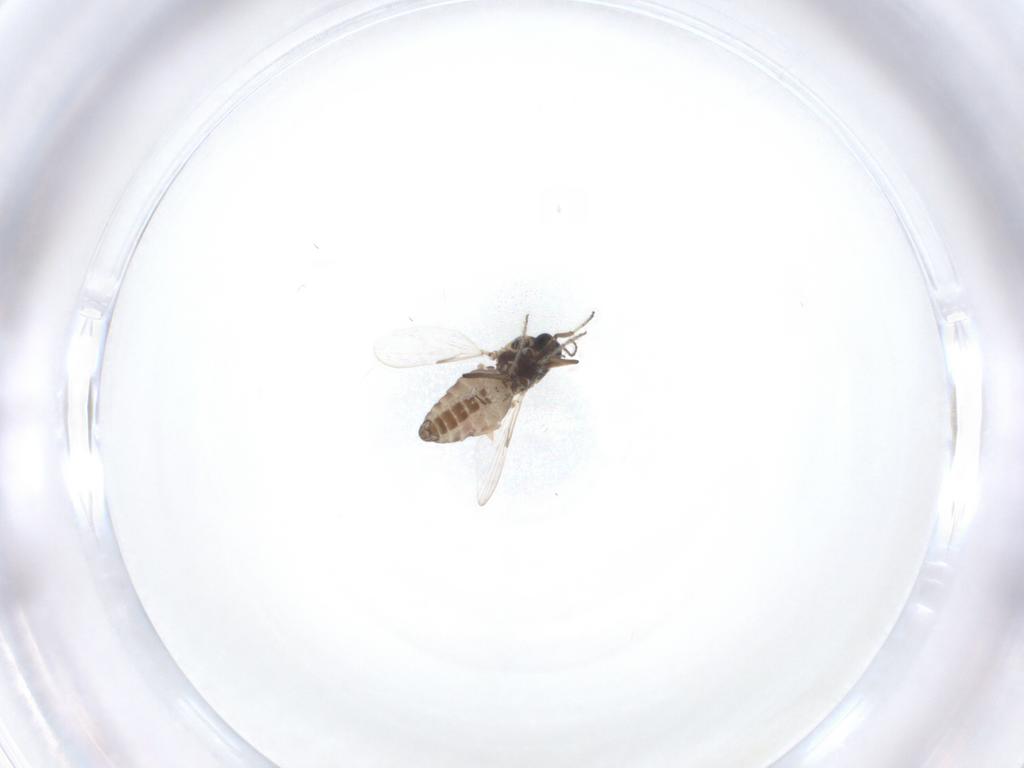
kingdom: Animalia
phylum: Arthropoda
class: Insecta
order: Diptera
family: Ceratopogonidae
